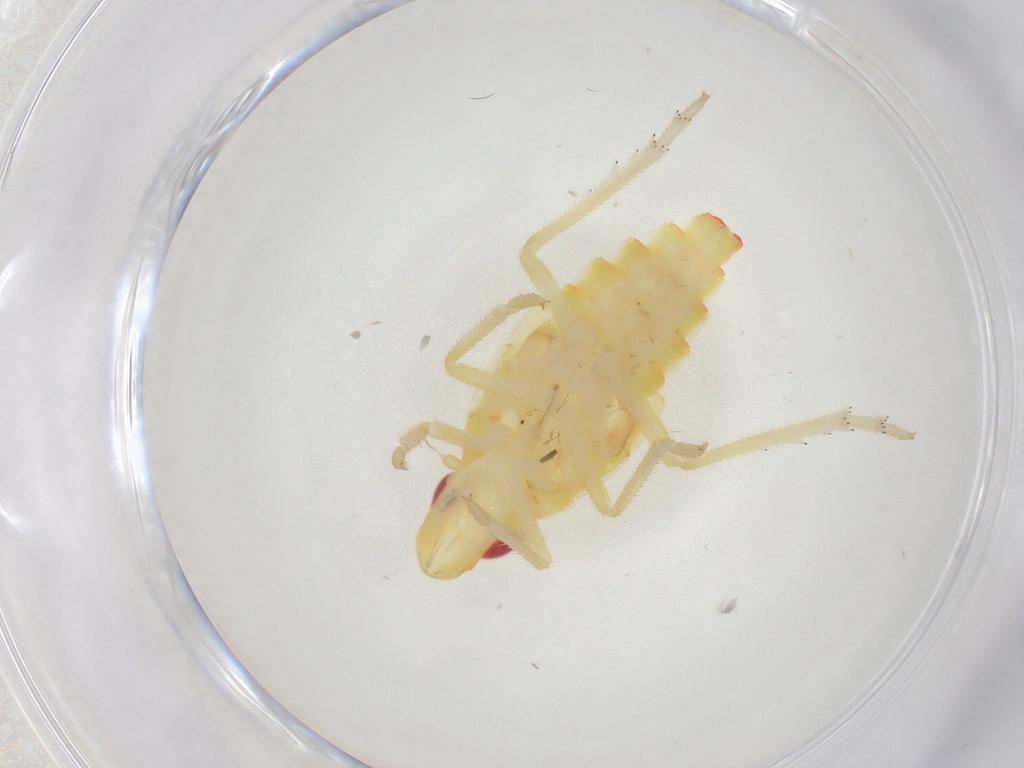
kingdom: Animalia
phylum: Arthropoda
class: Insecta
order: Hemiptera
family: Tropiduchidae
